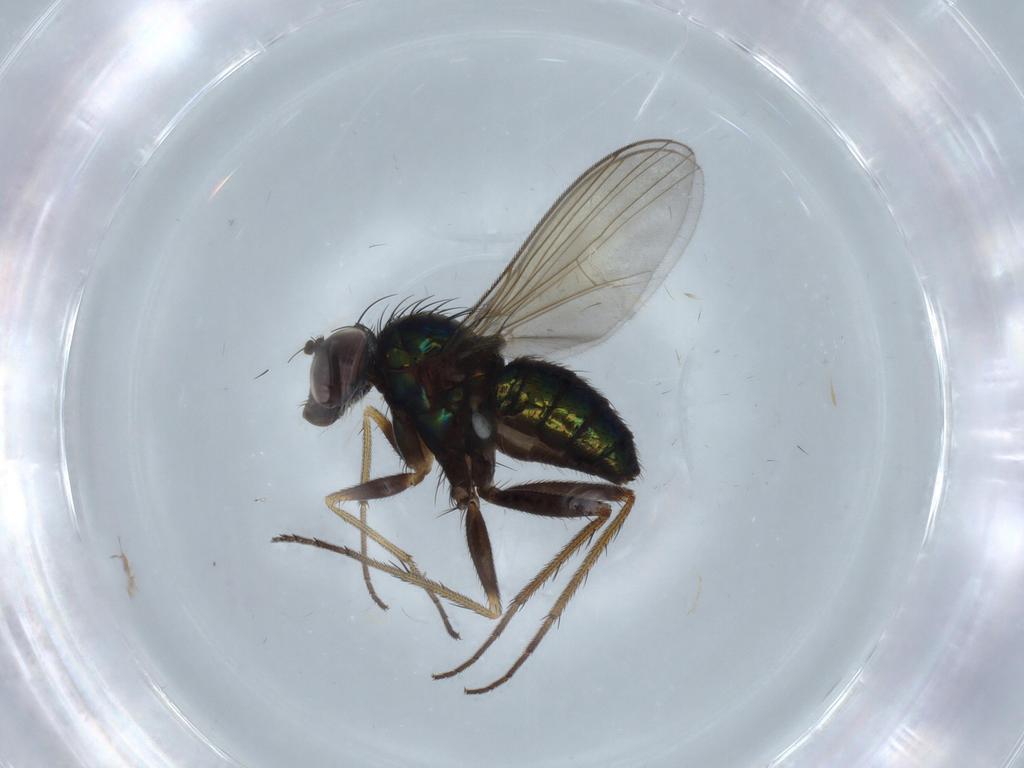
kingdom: Animalia
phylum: Arthropoda
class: Insecta
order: Diptera
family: Dolichopodidae
